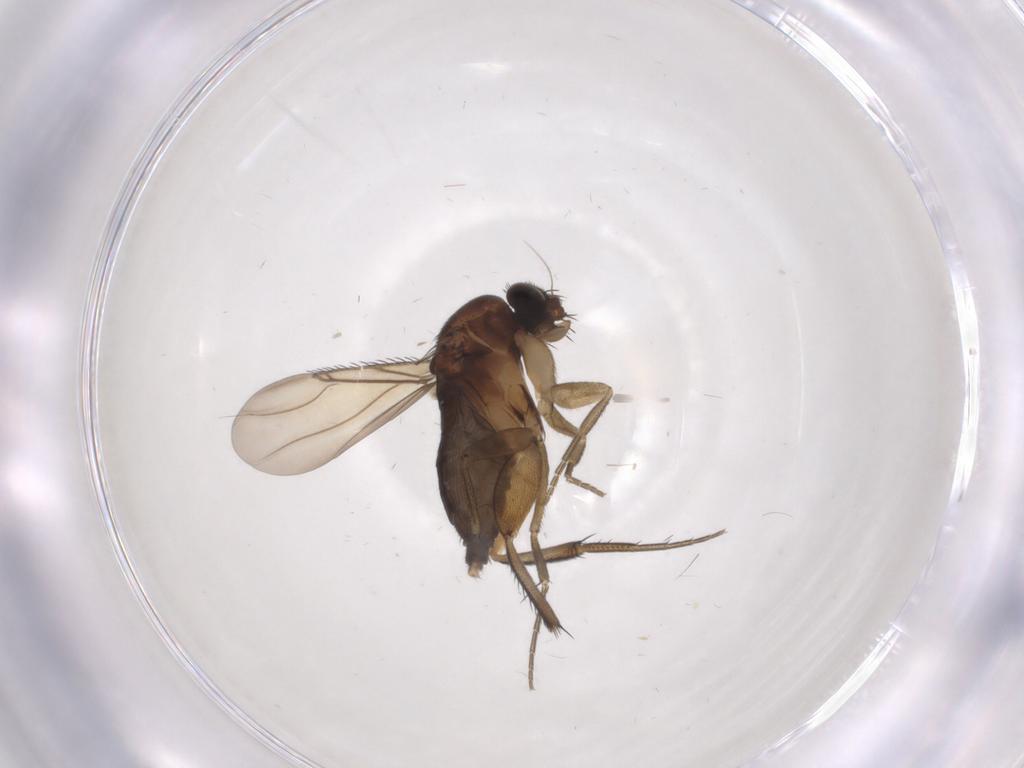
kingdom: Animalia
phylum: Arthropoda
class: Insecta
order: Diptera
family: Phoridae
